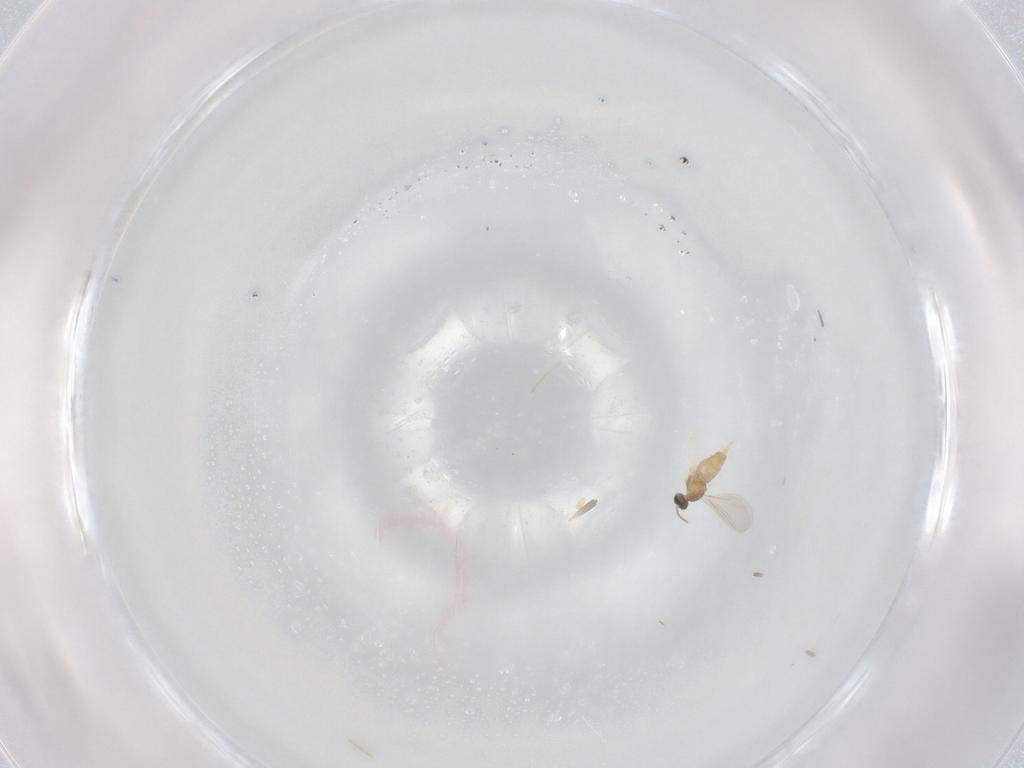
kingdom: Animalia
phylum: Arthropoda
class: Insecta
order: Diptera
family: Cecidomyiidae
